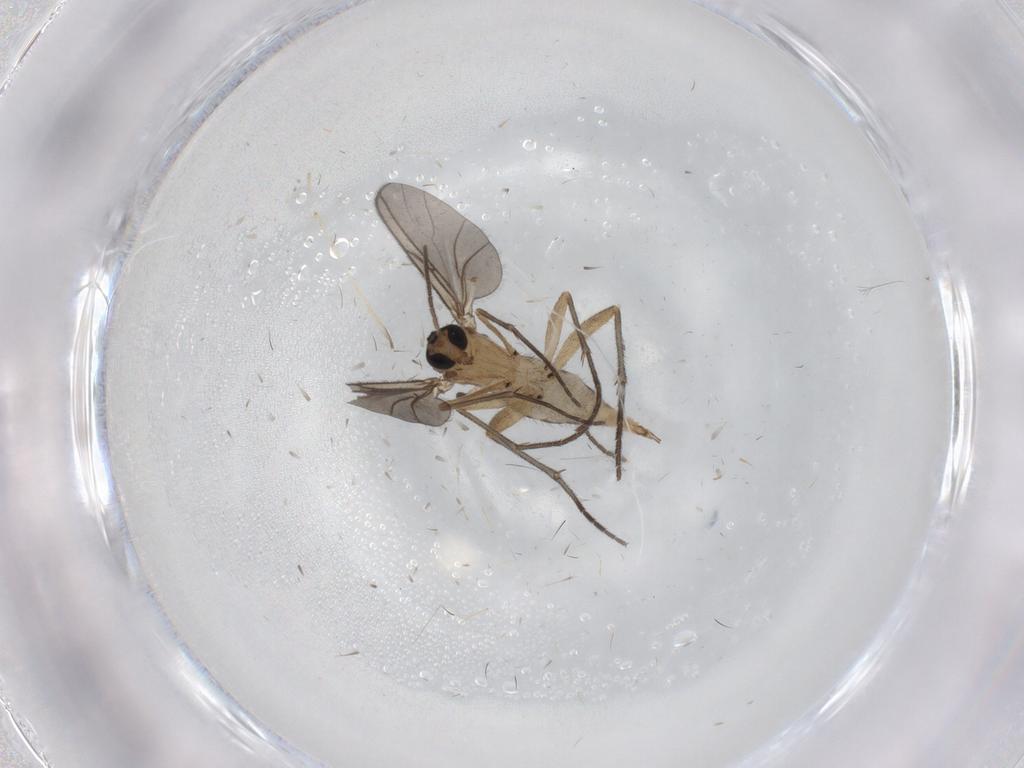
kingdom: Animalia
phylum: Arthropoda
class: Insecta
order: Diptera
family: Sciaridae
